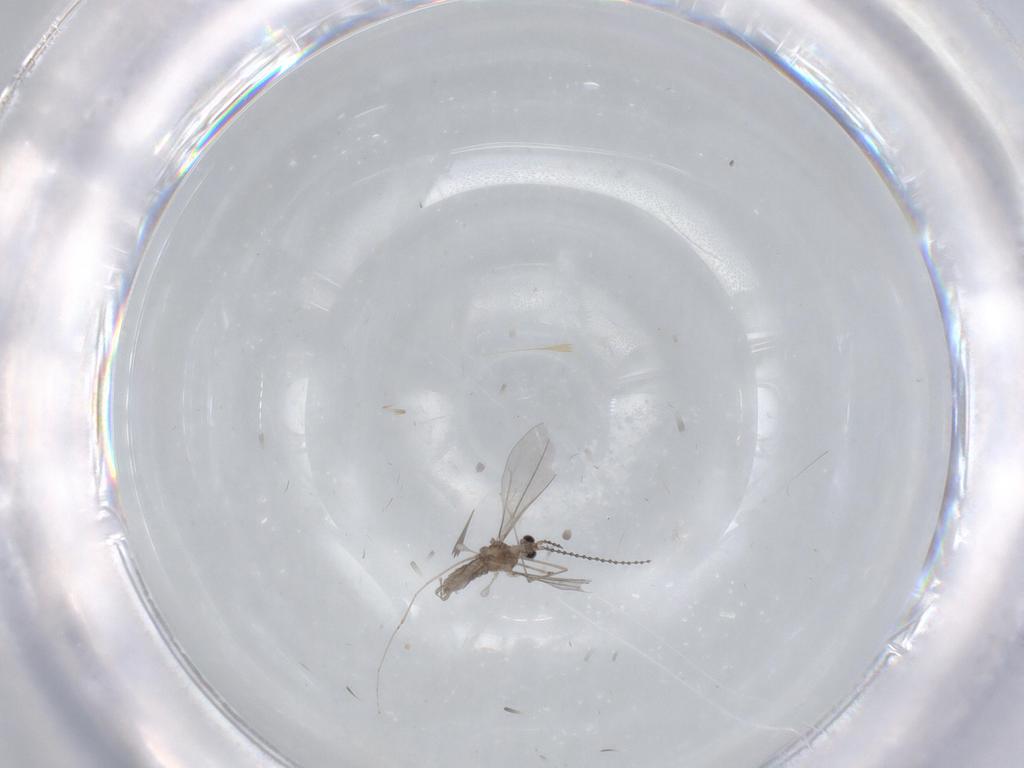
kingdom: Animalia
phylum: Arthropoda
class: Insecta
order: Diptera
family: Cecidomyiidae
